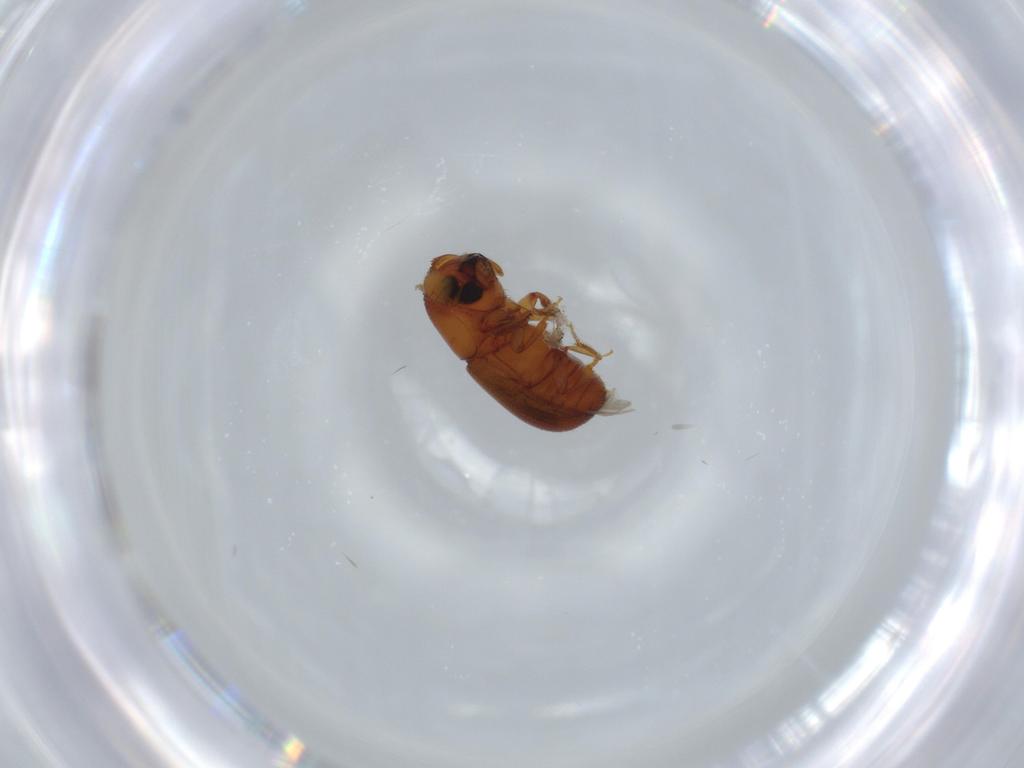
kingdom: Animalia
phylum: Arthropoda
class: Insecta
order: Coleoptera
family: Curculionidae
